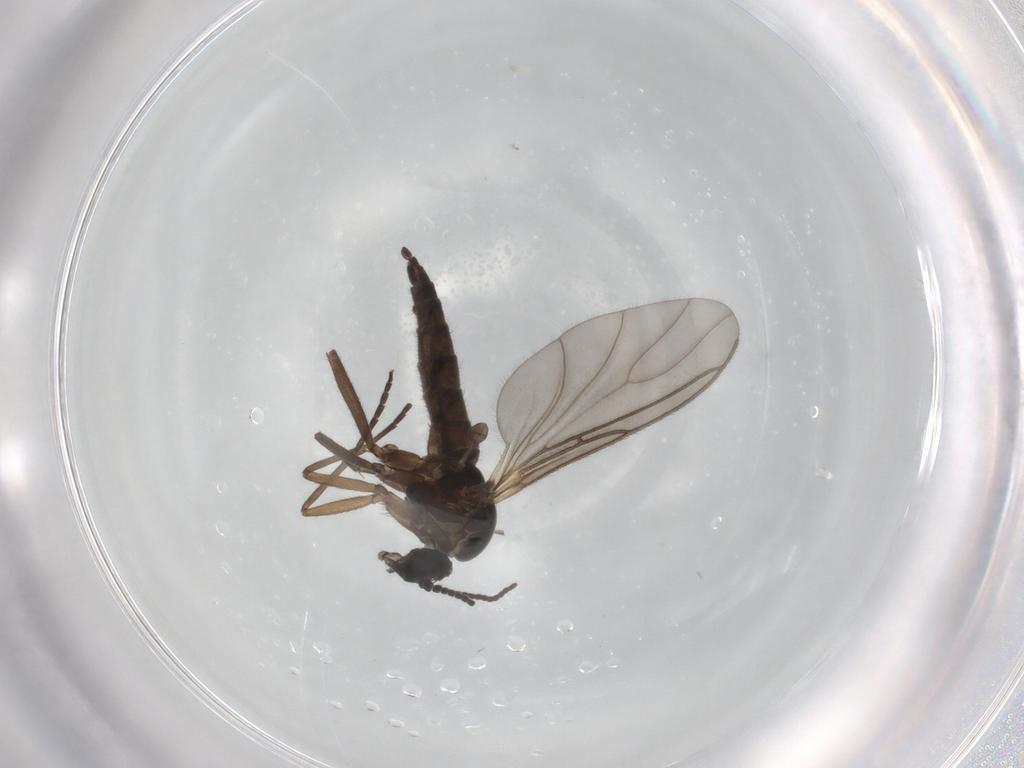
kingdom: Animalia
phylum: Arthropoda
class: Insecta
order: Diptera
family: Sciaridae
